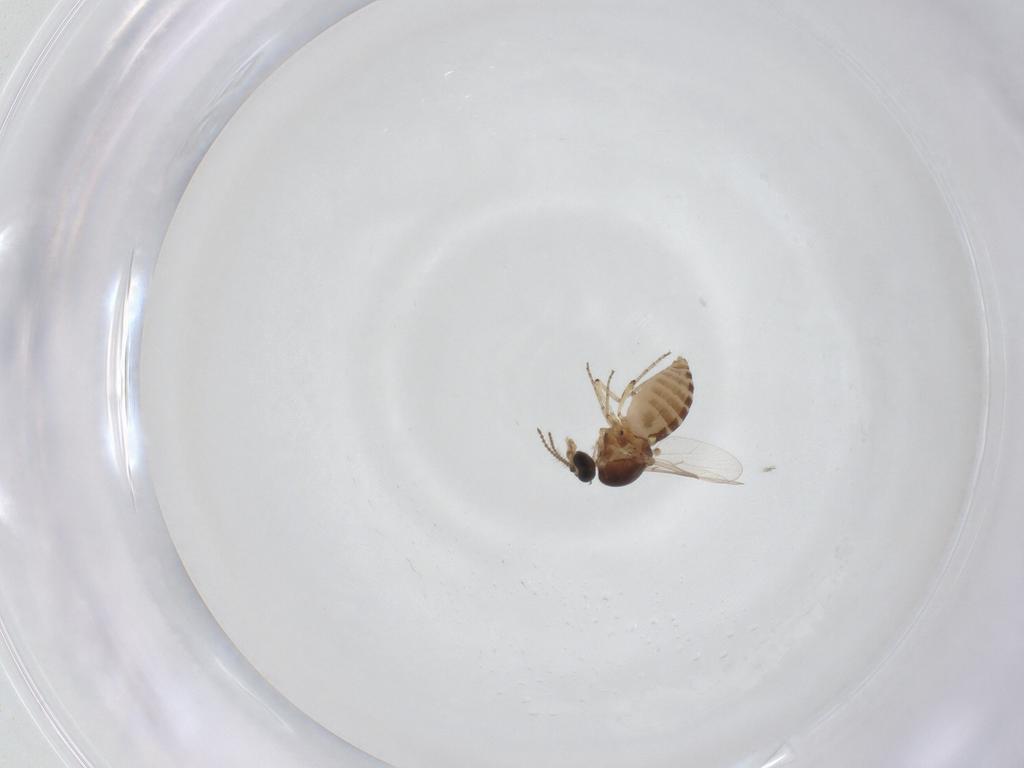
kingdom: Animalia
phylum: Arthropoda
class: Insecta
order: Diptera
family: Ceratopogonidae
